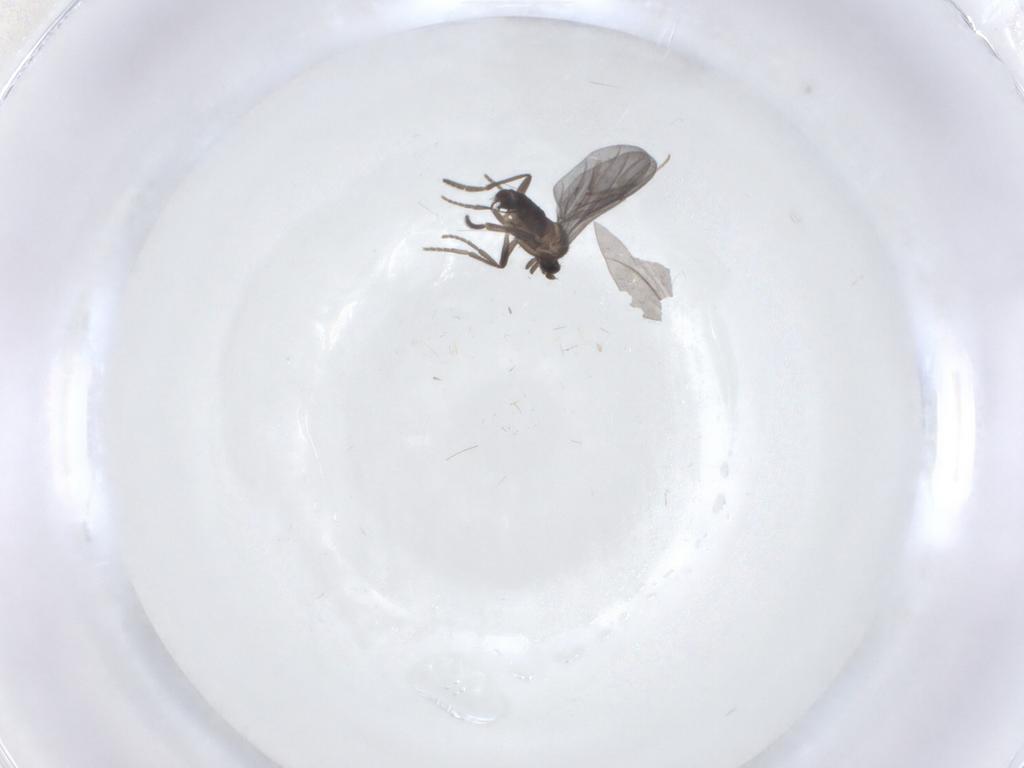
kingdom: Animalia
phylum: Arthropoda
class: Insecta
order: Diptera
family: Phoridae
